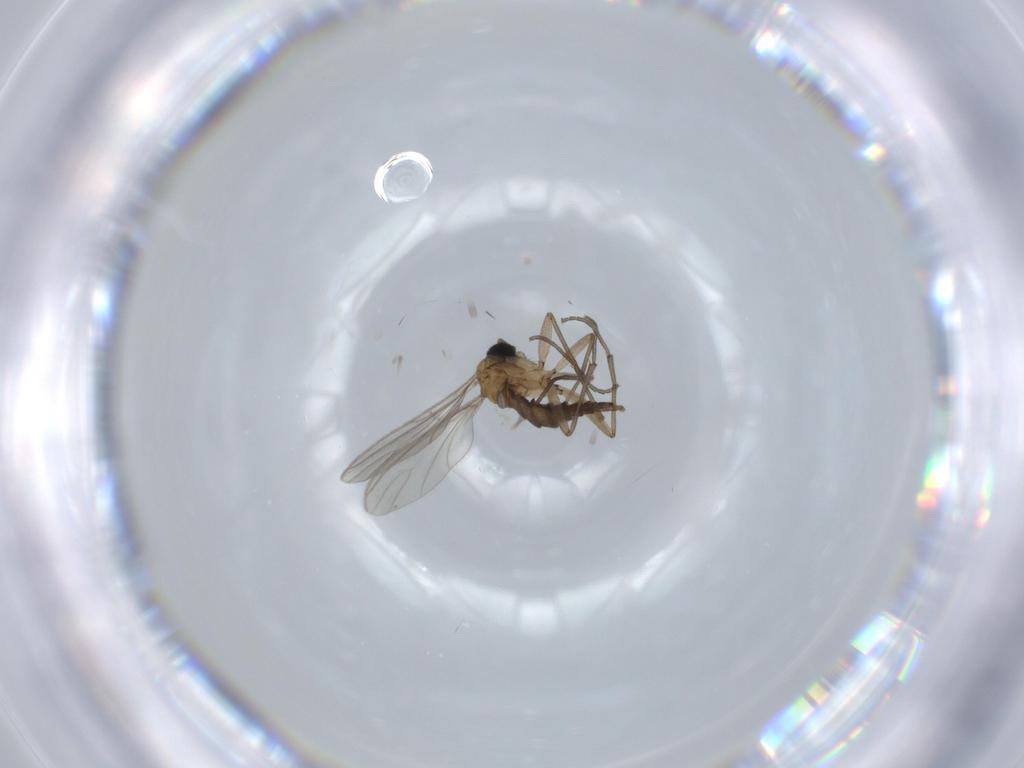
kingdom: Animalia
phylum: Arthropoda
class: Insecta
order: Diptera
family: Sciaridae
